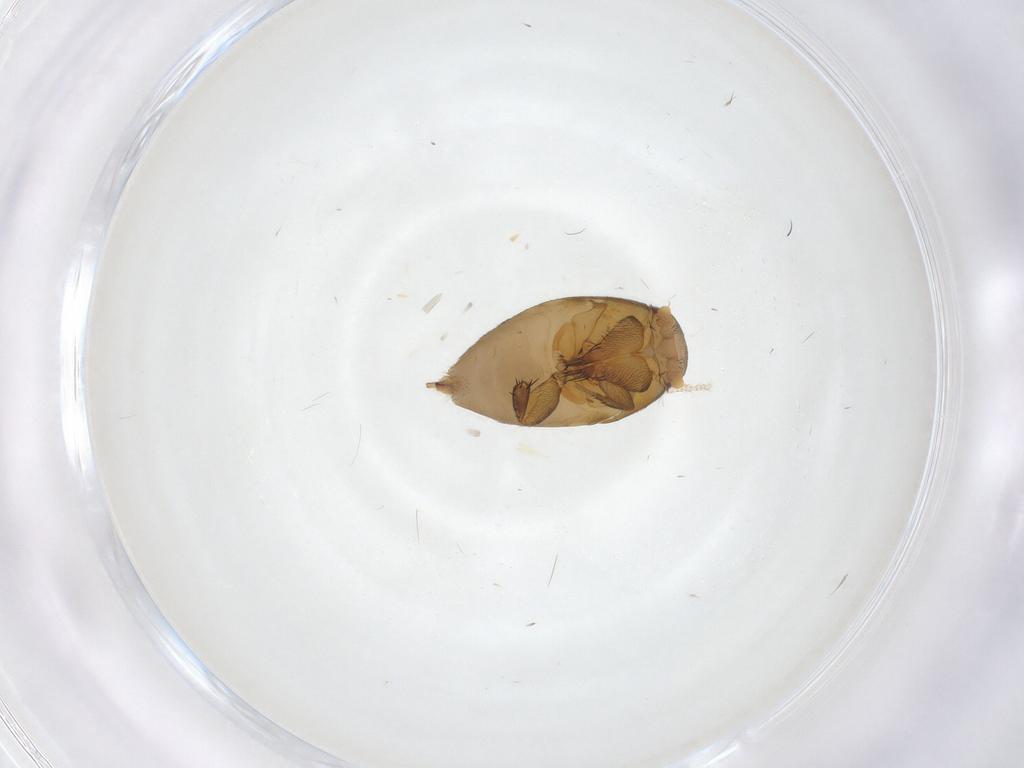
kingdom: Animalia
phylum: Arthropoda
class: Insecta
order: Diptera
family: Phoridae
